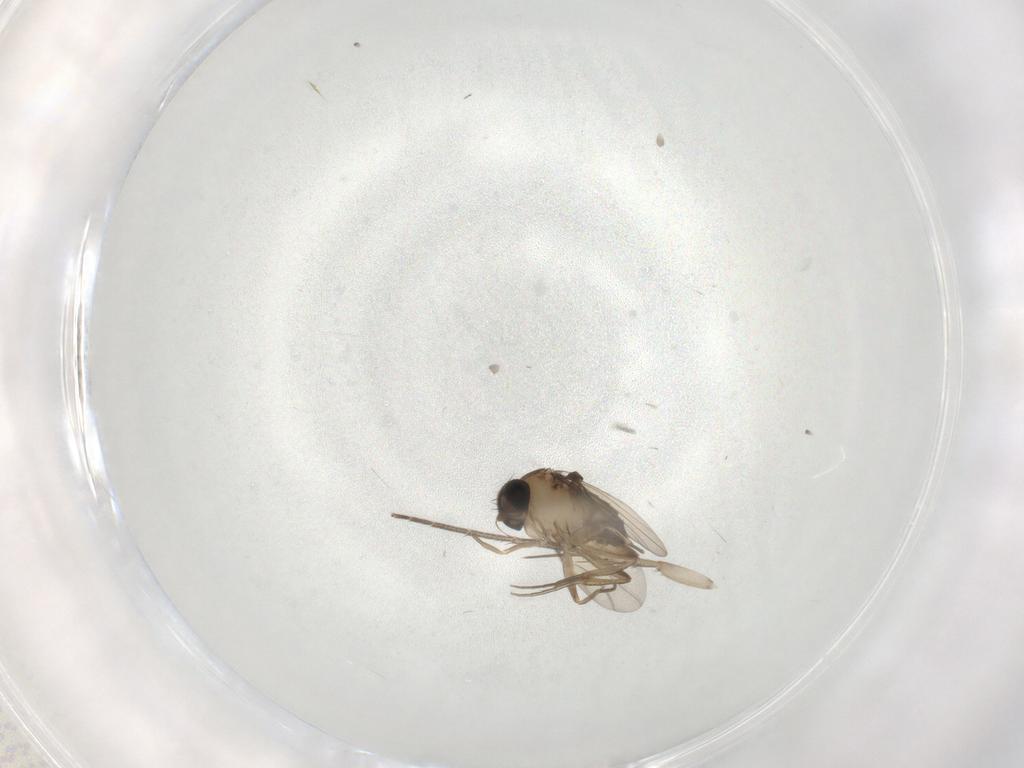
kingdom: Animalia
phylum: Arthropoda
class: Insecta
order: Diptera
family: Phoridae
